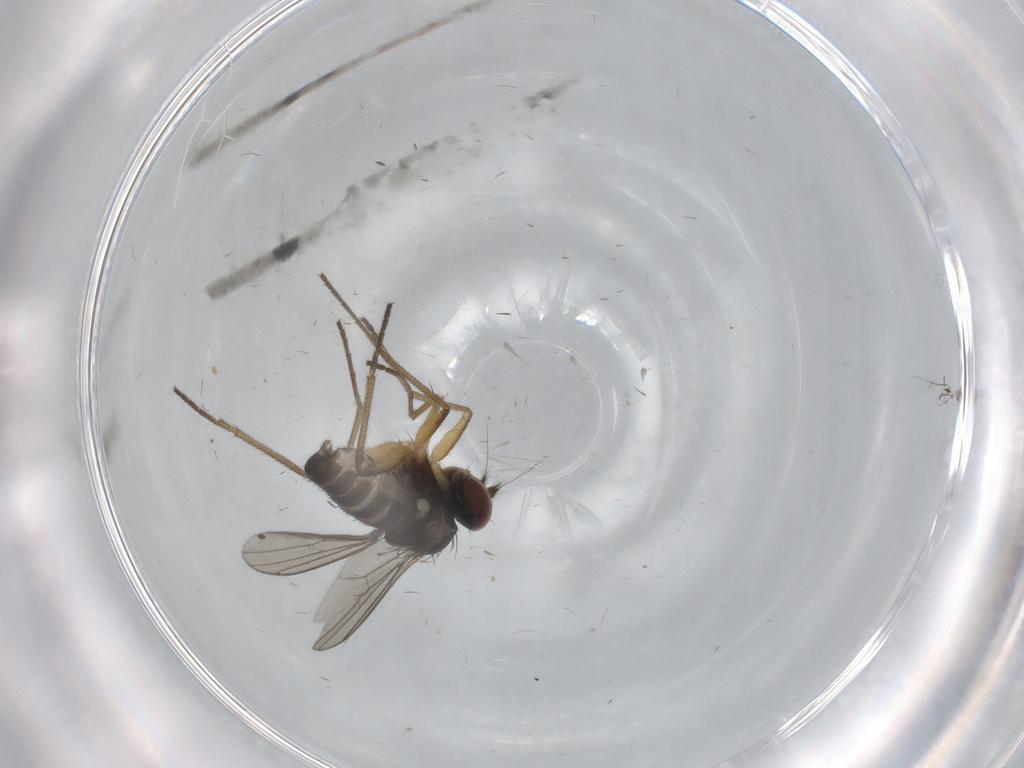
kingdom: Animalia
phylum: Arthropoda
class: Insecta
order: Diptera
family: Dolichopodidae
